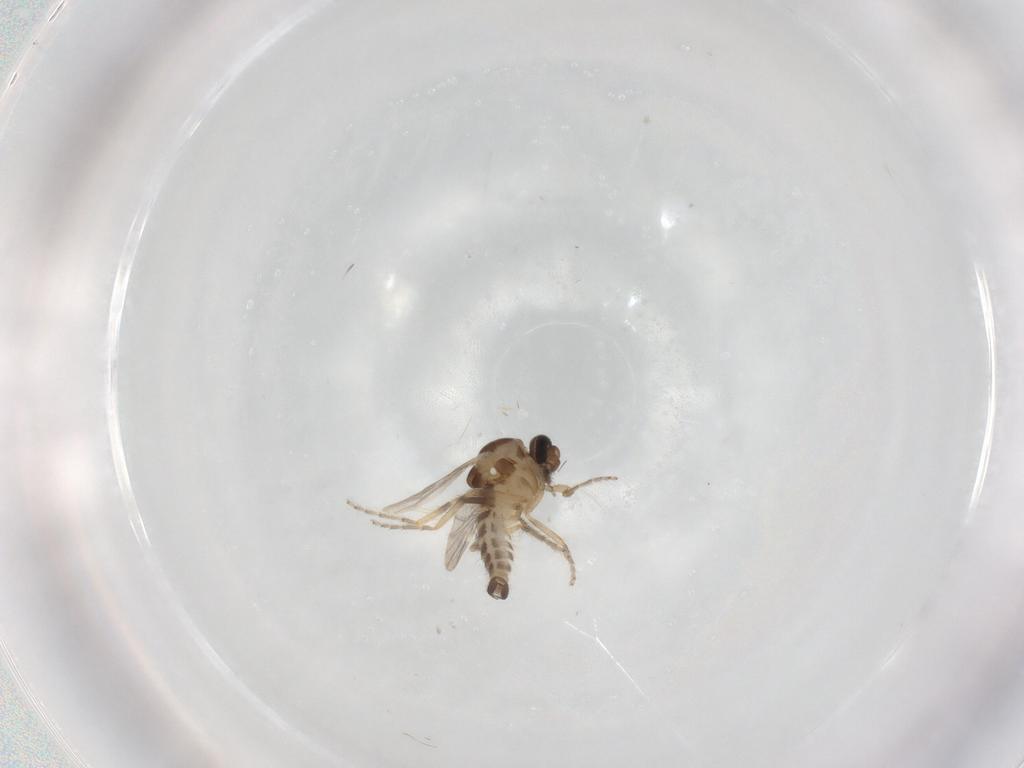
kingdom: Animalia
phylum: Arthropoda
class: Insecta
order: Diptera
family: Ceratopogonidae
